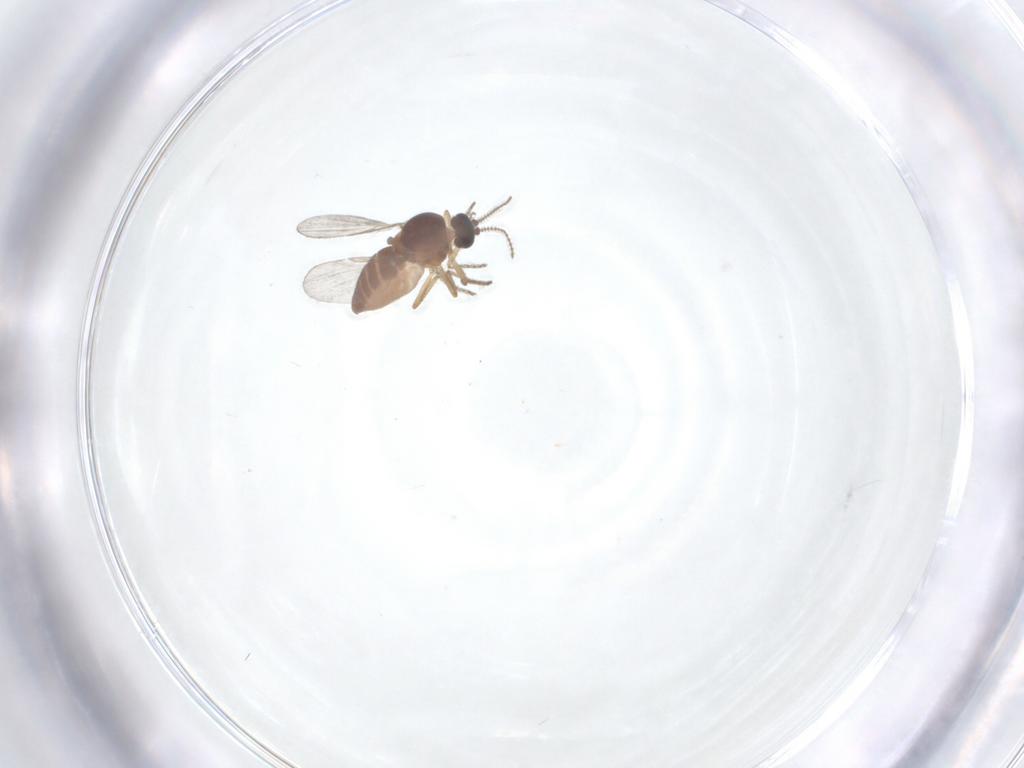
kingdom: Animalia
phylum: Arthropoda
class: Insecta
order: Diptera
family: Ceratopogonidae
